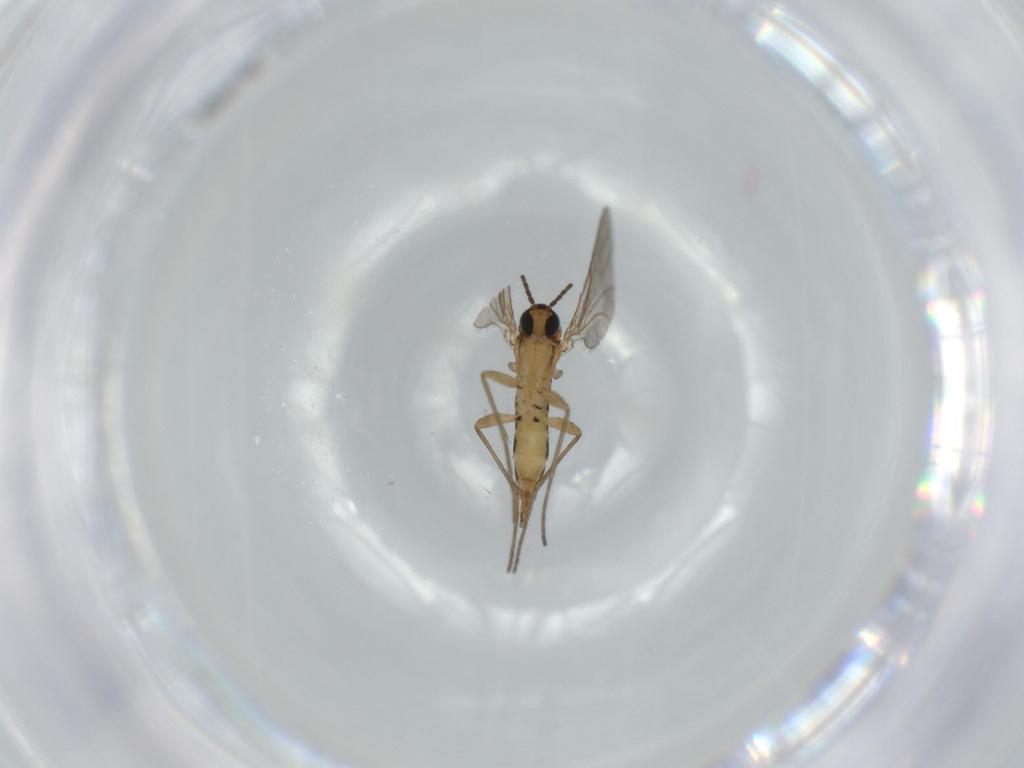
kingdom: Animalia
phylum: Arthropoda
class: Insecta
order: Diptera
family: Sciaridae
